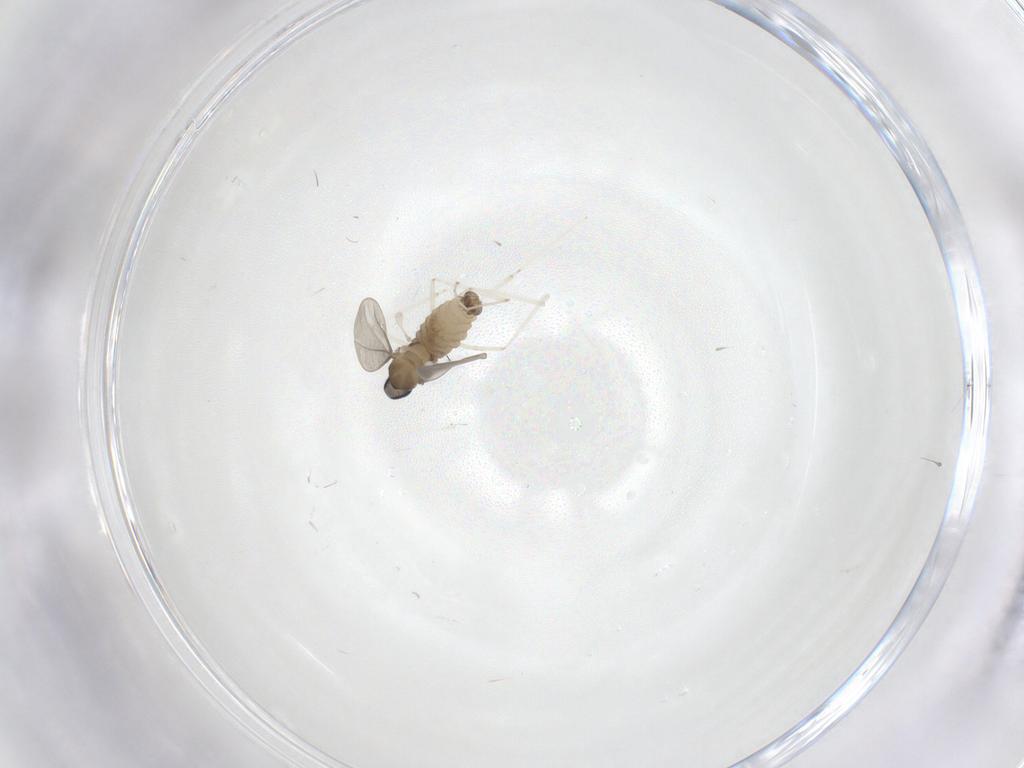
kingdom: Animalia
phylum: Arthropoda
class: Insecta
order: Diptera
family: Cecidomyiidae
